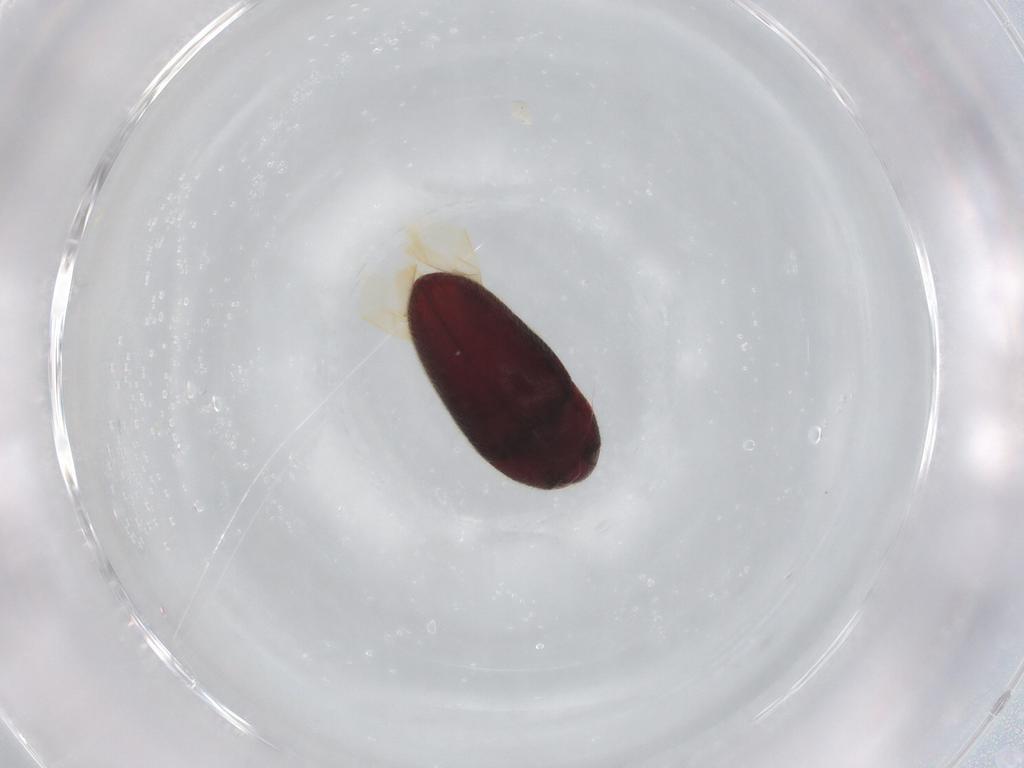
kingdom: Animalia
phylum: Arthropoda
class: Insecta
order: Coleoptera
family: Throscidae
